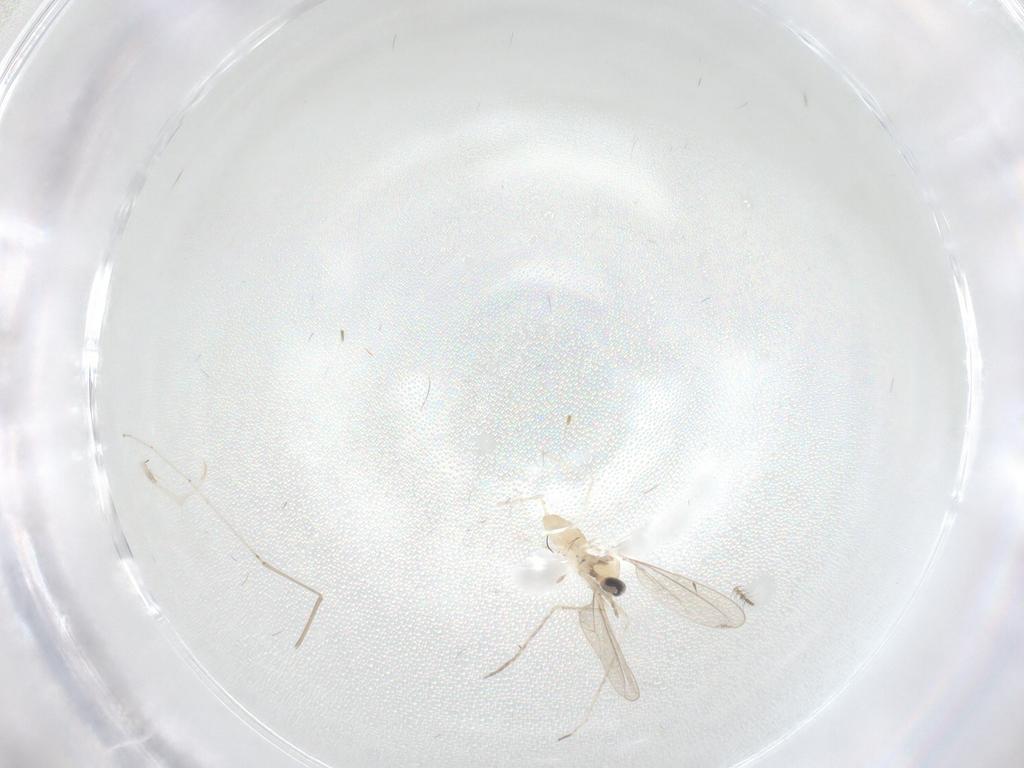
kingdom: Animalia
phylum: Arthropoda
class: Insecta
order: Diptera
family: Cecidomyiidae
